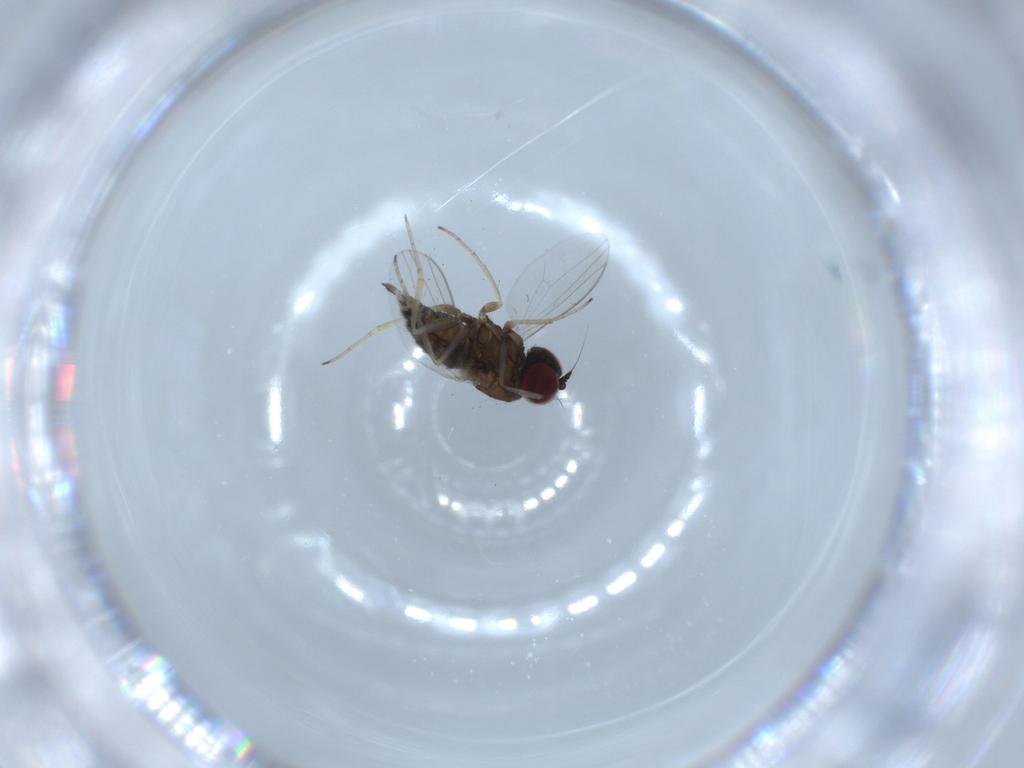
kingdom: Animalia
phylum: Arthropoda
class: Insecta
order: Diptera
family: Dolichopodidae
